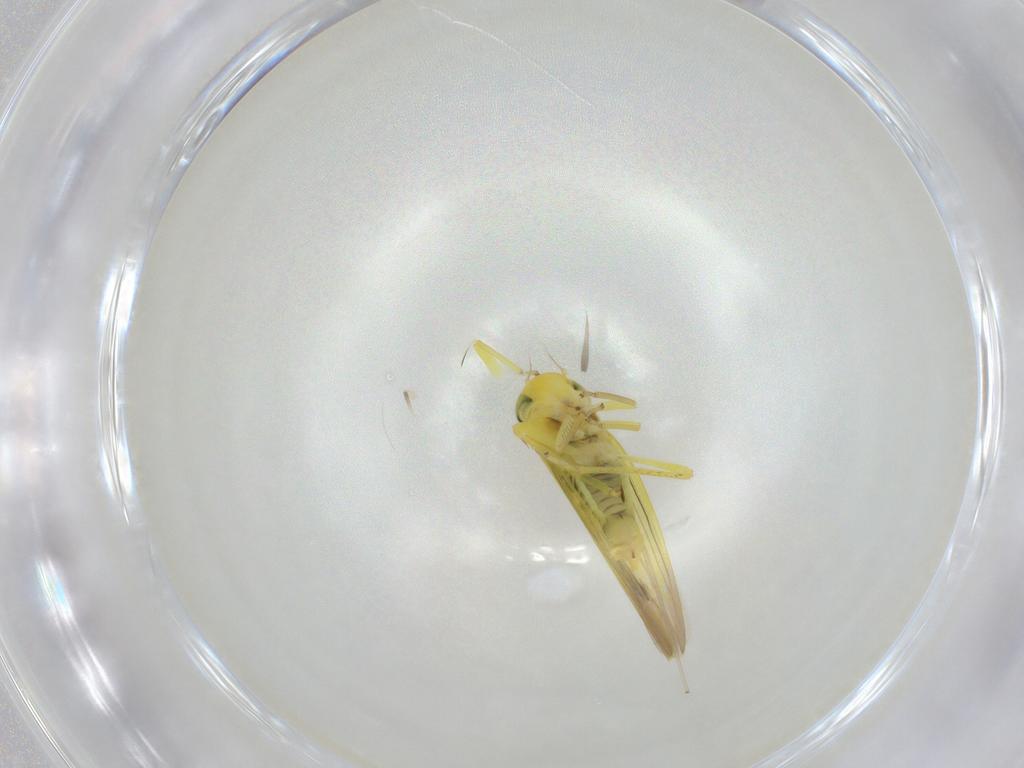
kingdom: Animalia
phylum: Arthropoda
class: Insecta
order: Hemiptera
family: Cicadellidae
